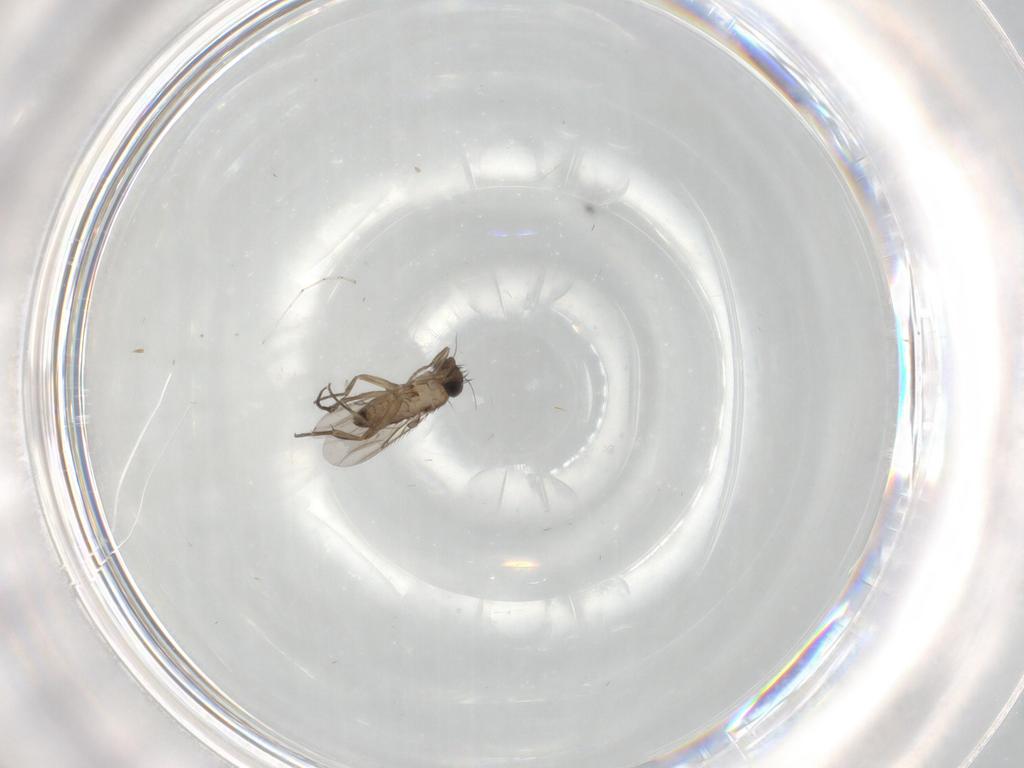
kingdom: Animalia
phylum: Arthropoda
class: Insecta
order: Diptera
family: Phoridae
